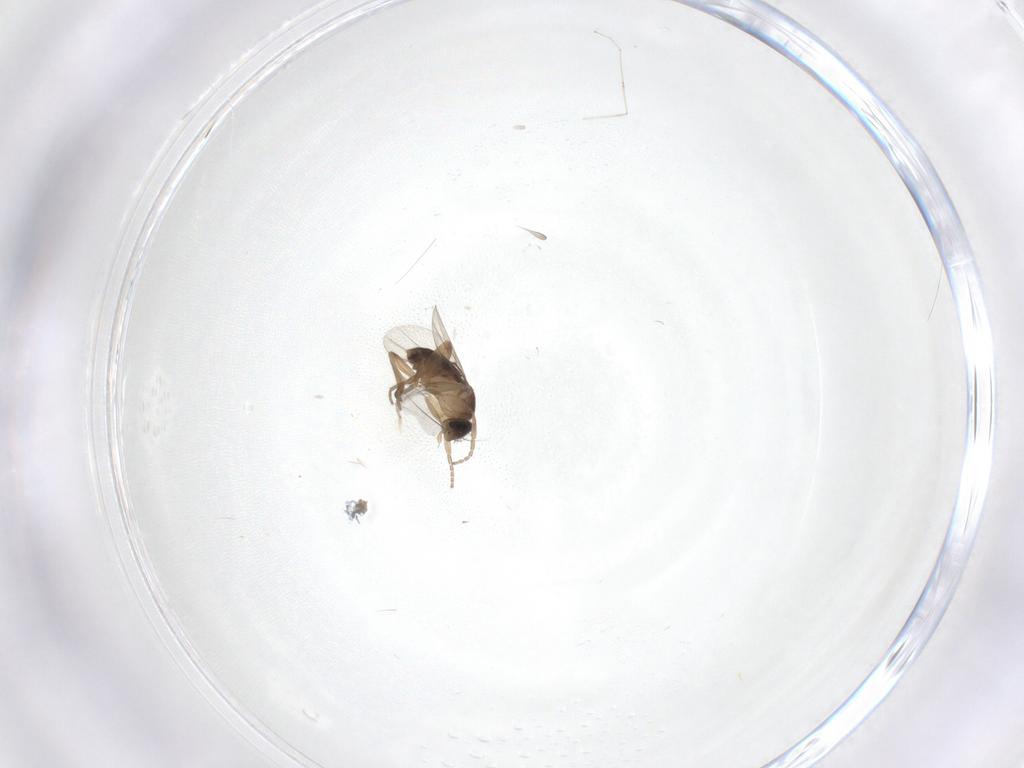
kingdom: Animalia
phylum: Arthropoda
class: Insecta
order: Diptera
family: Phoridae
